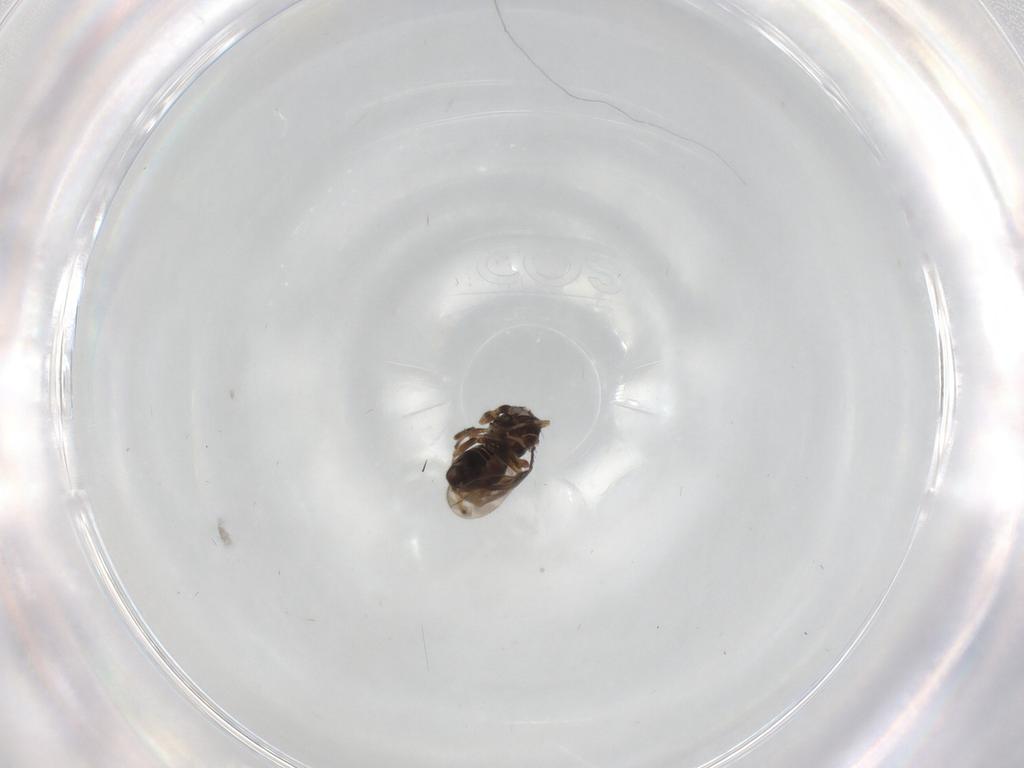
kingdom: Animalia
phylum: Arthropoda
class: Insecta
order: Diptera
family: Sphaeroceridae
